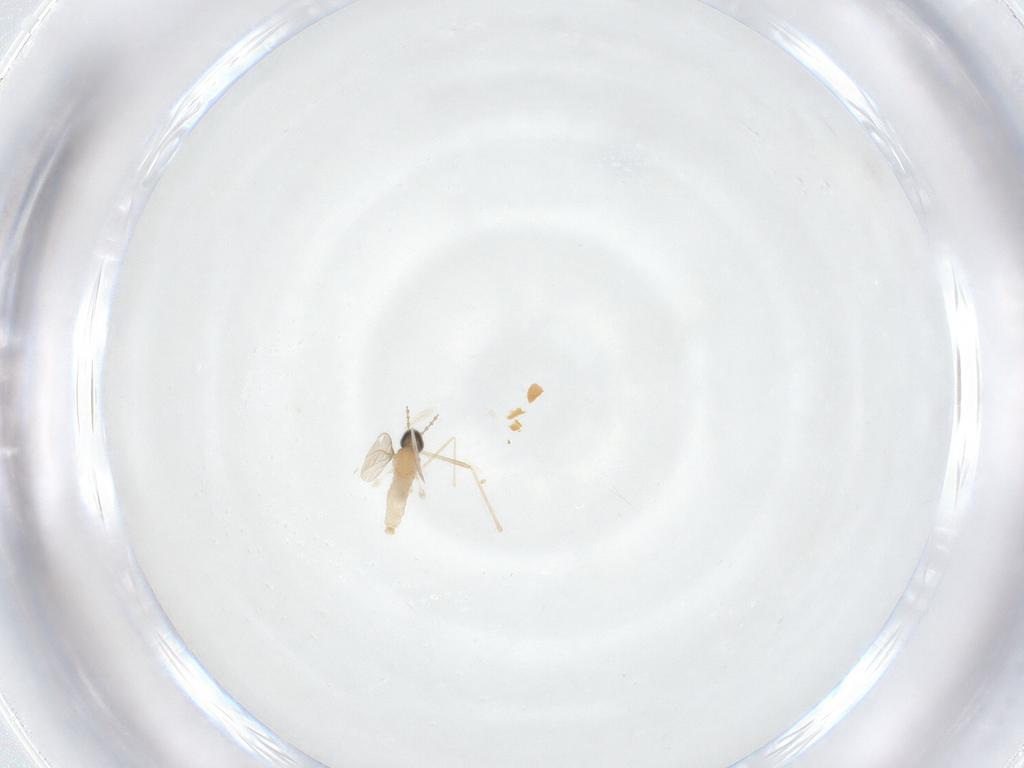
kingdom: Animalia
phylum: Arthropoda
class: Insecta
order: Diptera
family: Cecidomyiidae
